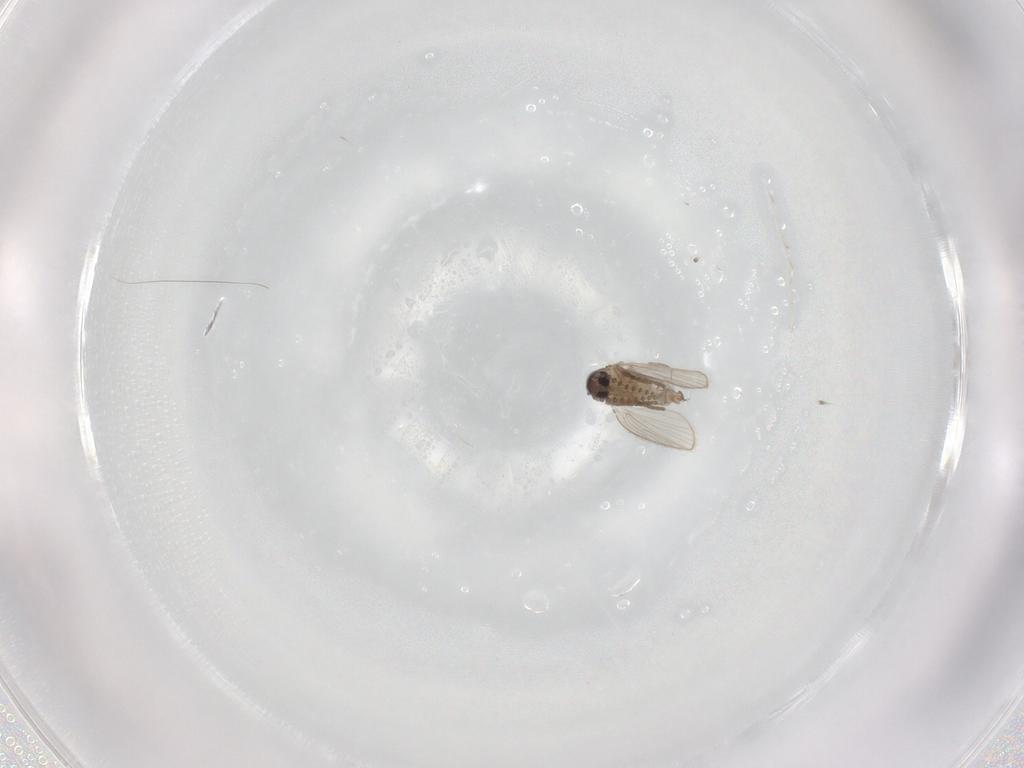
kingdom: Animalia
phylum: Arthropoda
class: Insecta
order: Diptera
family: Psychodidae
